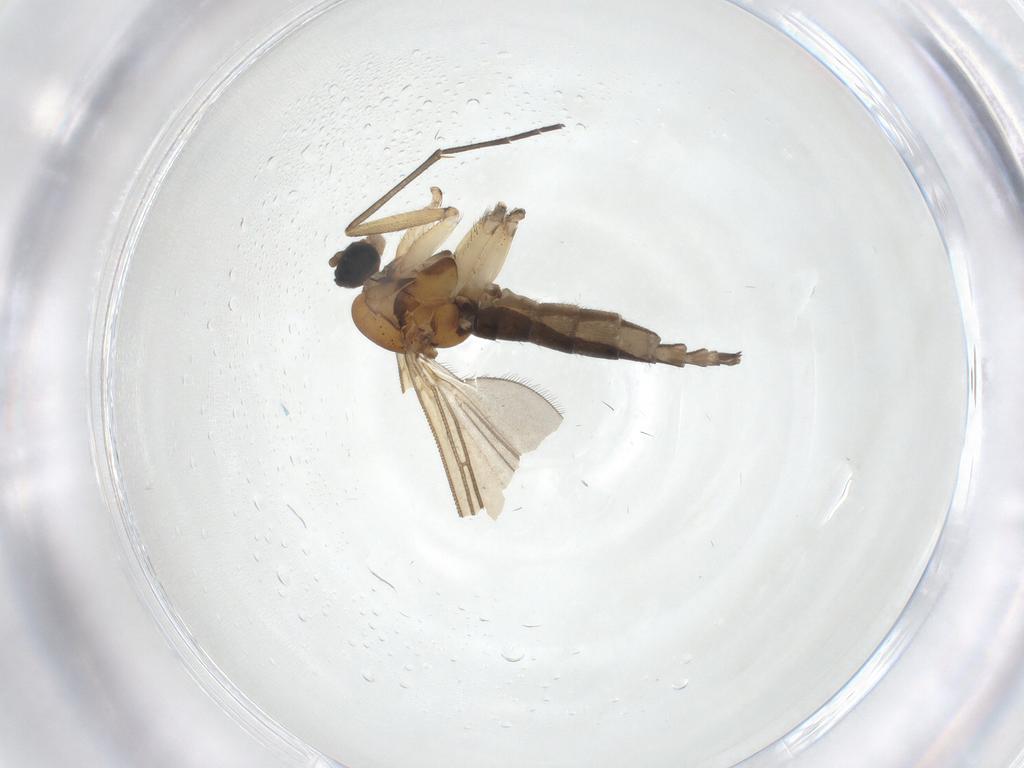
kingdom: Animalia
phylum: Arthropoda
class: Insecta
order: Diptera
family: Sciaridae
